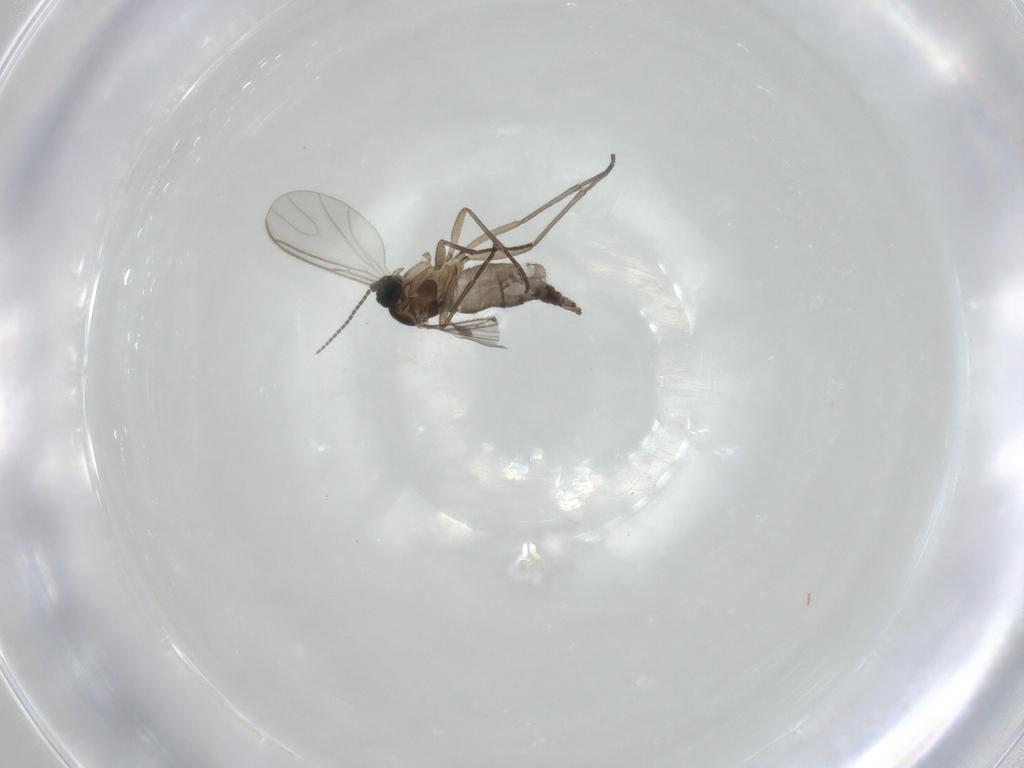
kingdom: Animalia
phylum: Arthropoda
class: Insecta
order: Diptera
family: Sciaridae
